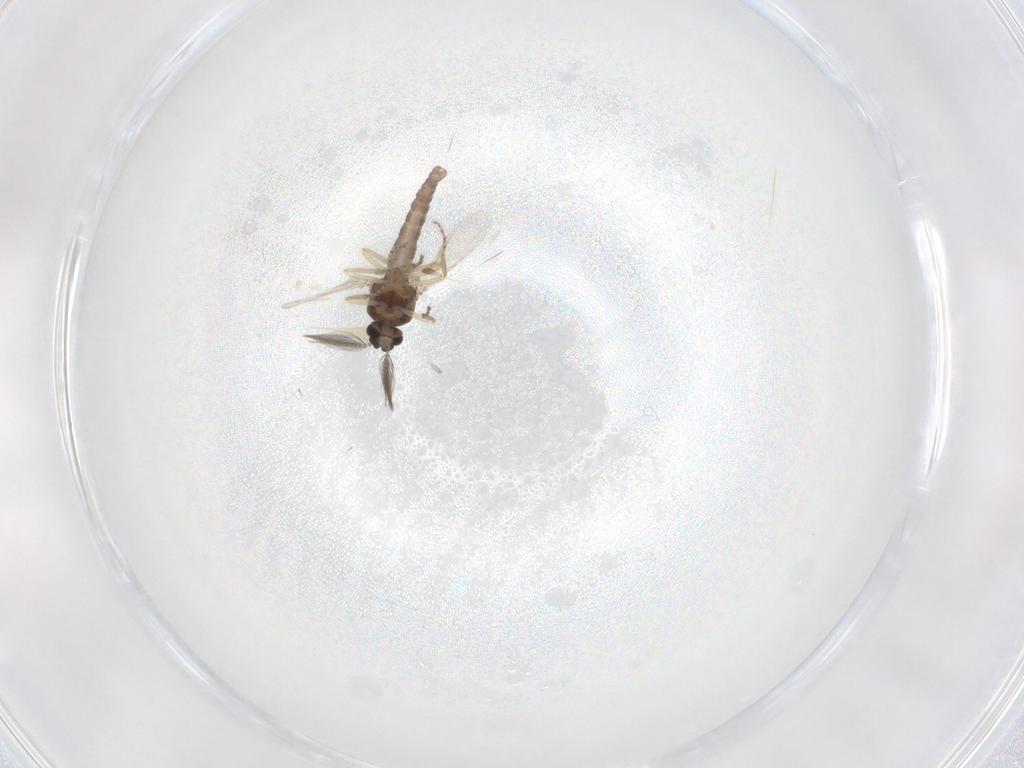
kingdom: Animalia
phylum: Arthropoda
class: Insecta
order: Diptera
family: Ceratopogonidae
